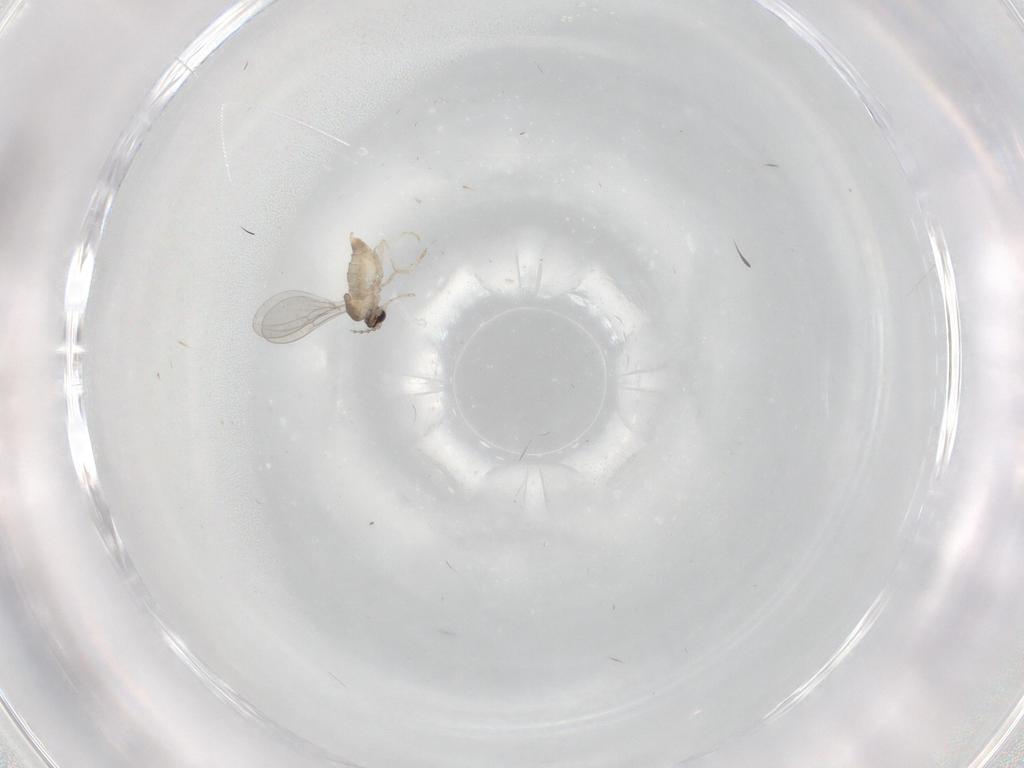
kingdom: Animalia
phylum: Arthropoda
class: Insecta
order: Diptera
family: Cecidomyiidae
